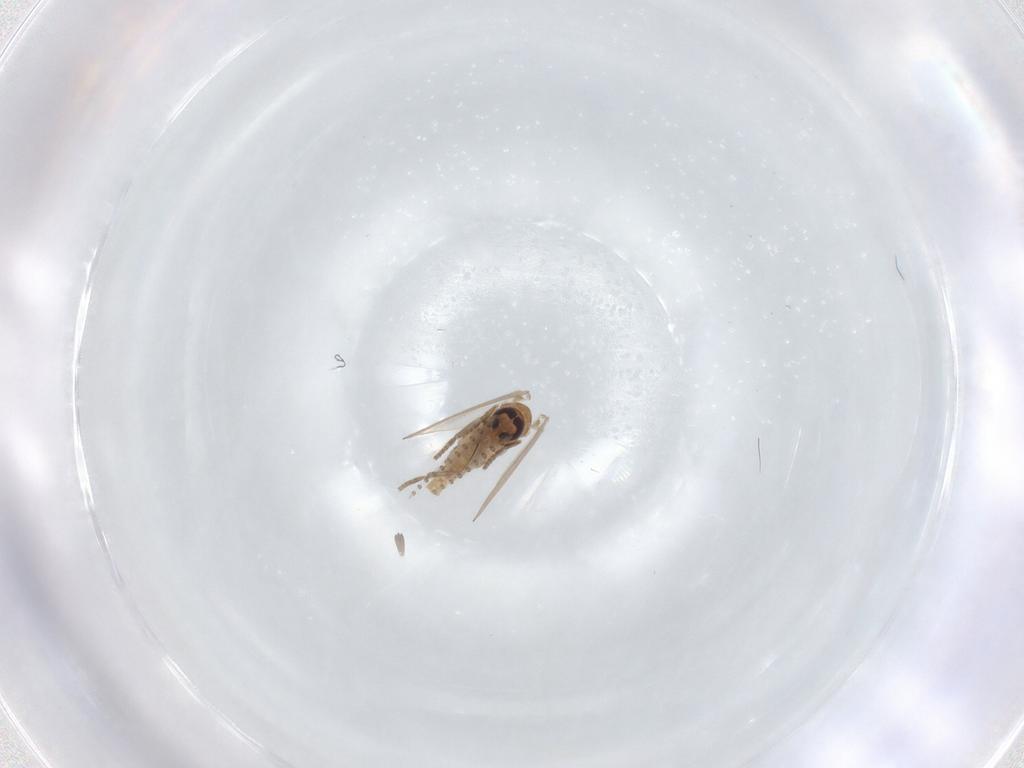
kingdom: Animalia
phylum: Arthropoda
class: Insecta
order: Diptera
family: Psychodidae
